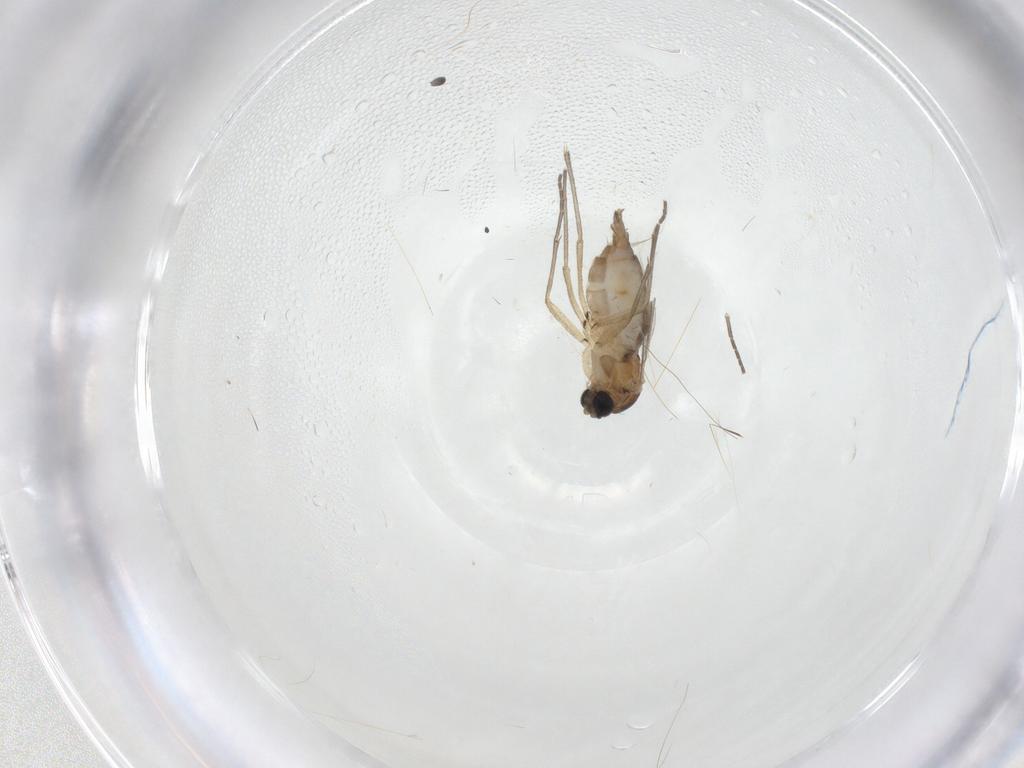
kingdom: Animalia
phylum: Arthropoda
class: Insecta
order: Diptera
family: Sciaridae
